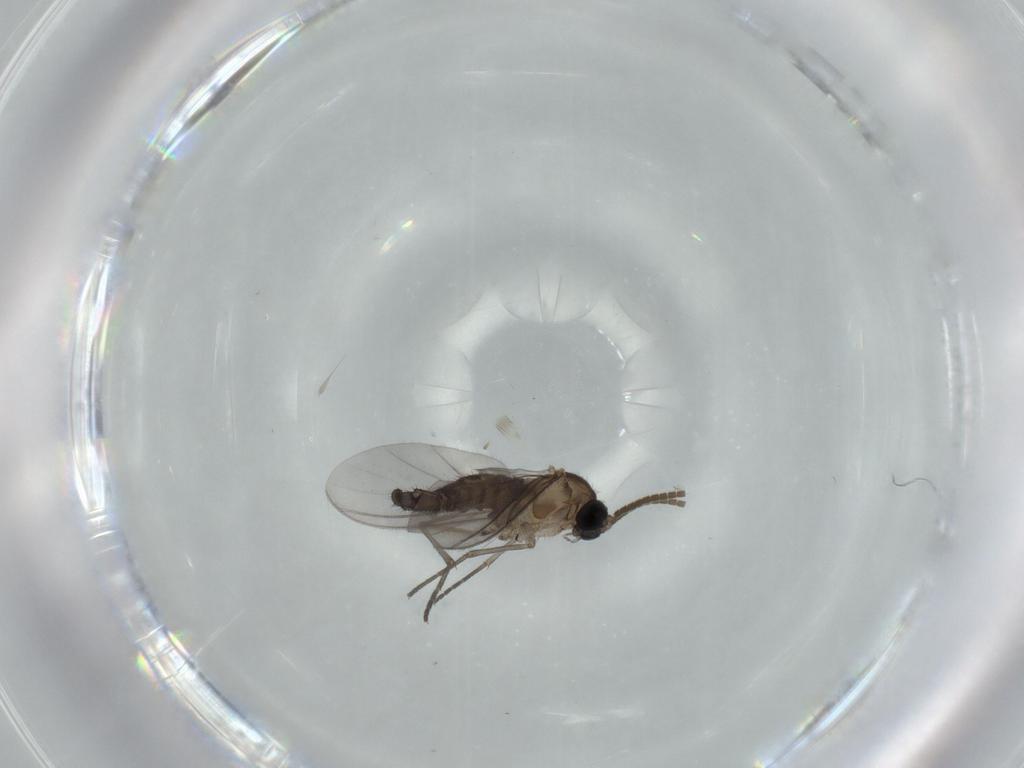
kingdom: Animalia
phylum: Arthropoda
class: Insecta
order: Diptera
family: Sciaridae
